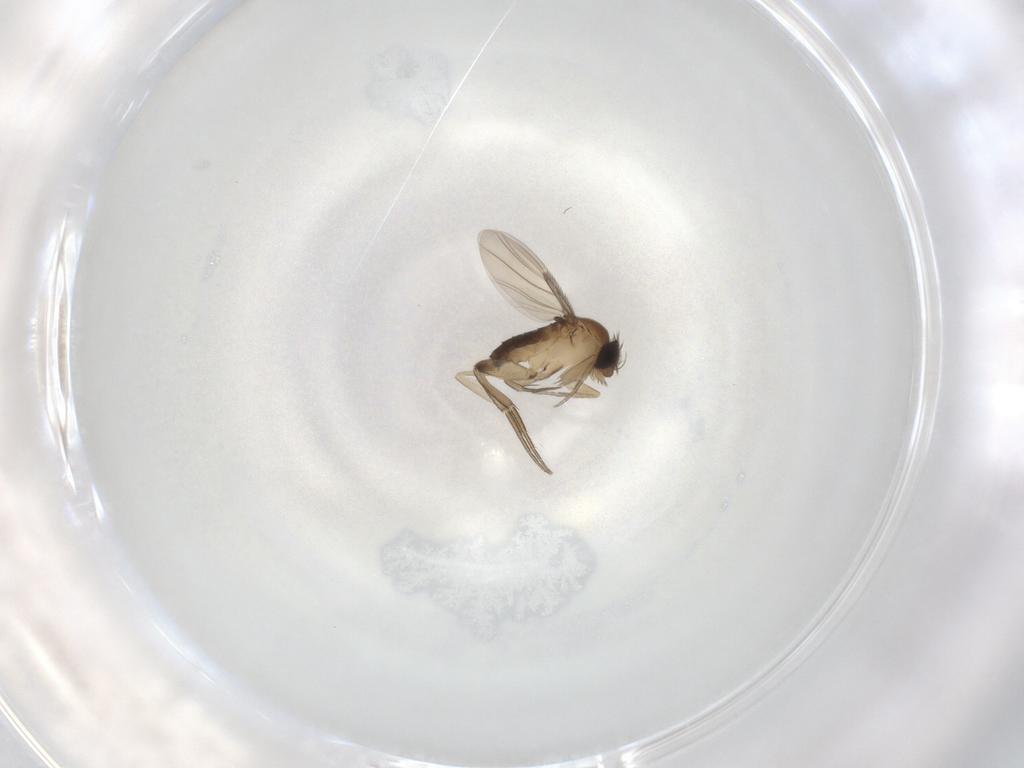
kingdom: Animalia
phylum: Arthropoda
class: Insecta
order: Diptera
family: Phoridae
